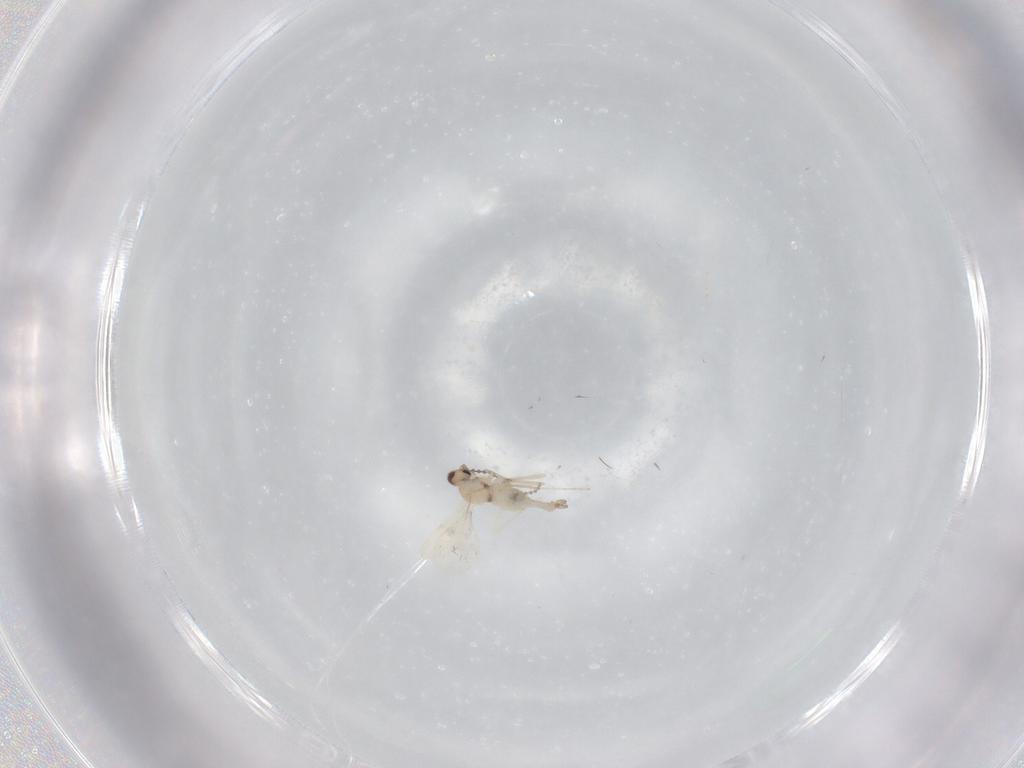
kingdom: Animalia
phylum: Arthropoda
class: Insecta
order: Diptera
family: Cecidomyiidae
